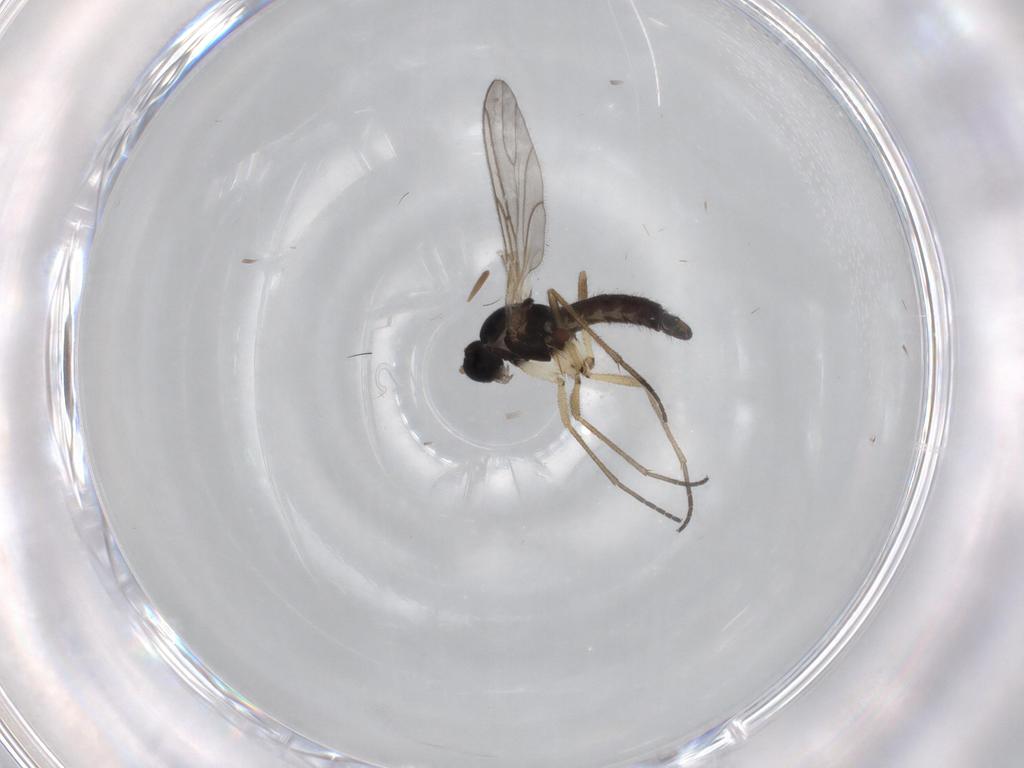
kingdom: Animalia
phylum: Arthropoda
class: Insecta
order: Diptera
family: Sciaridae
